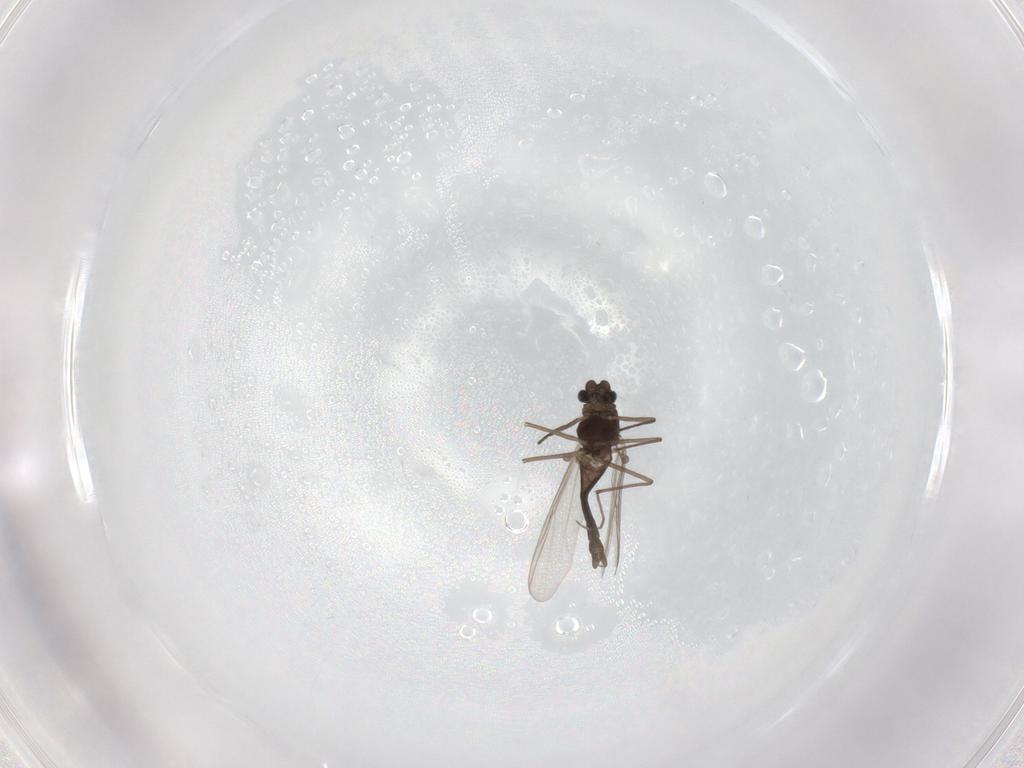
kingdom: Animalia
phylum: Arthropoda
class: Insecta
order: Diptera
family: Chironomidae
